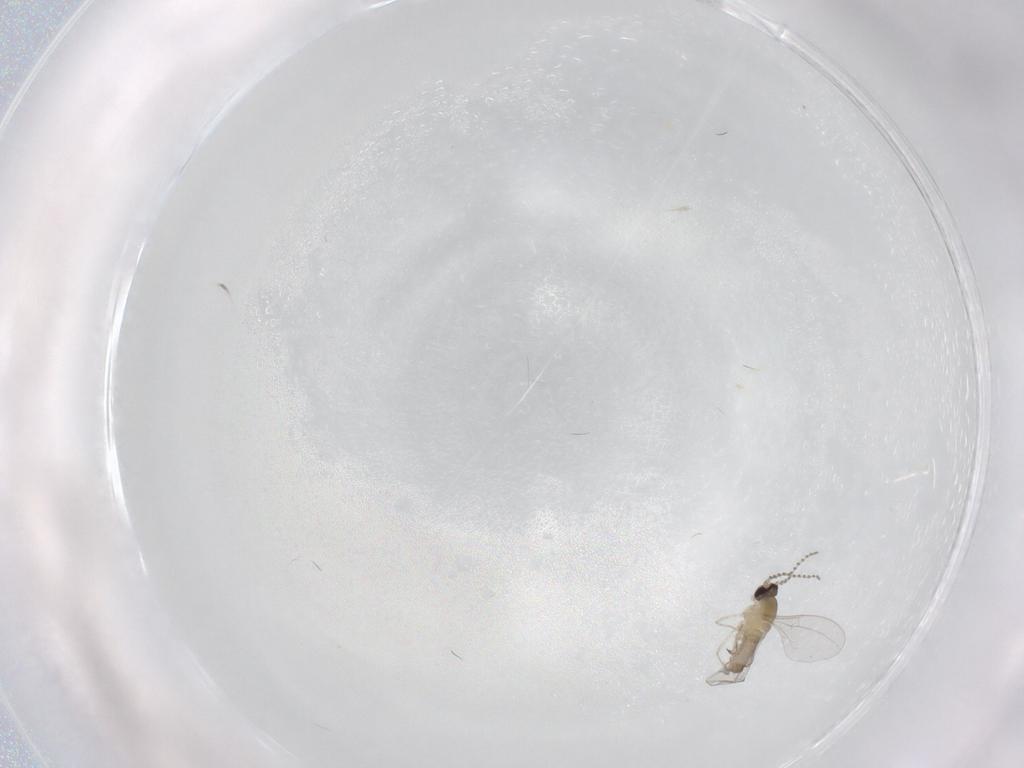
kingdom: Animalia
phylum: Arthropoda
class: Insecta
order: Diptera
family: Cecidomyiidae
